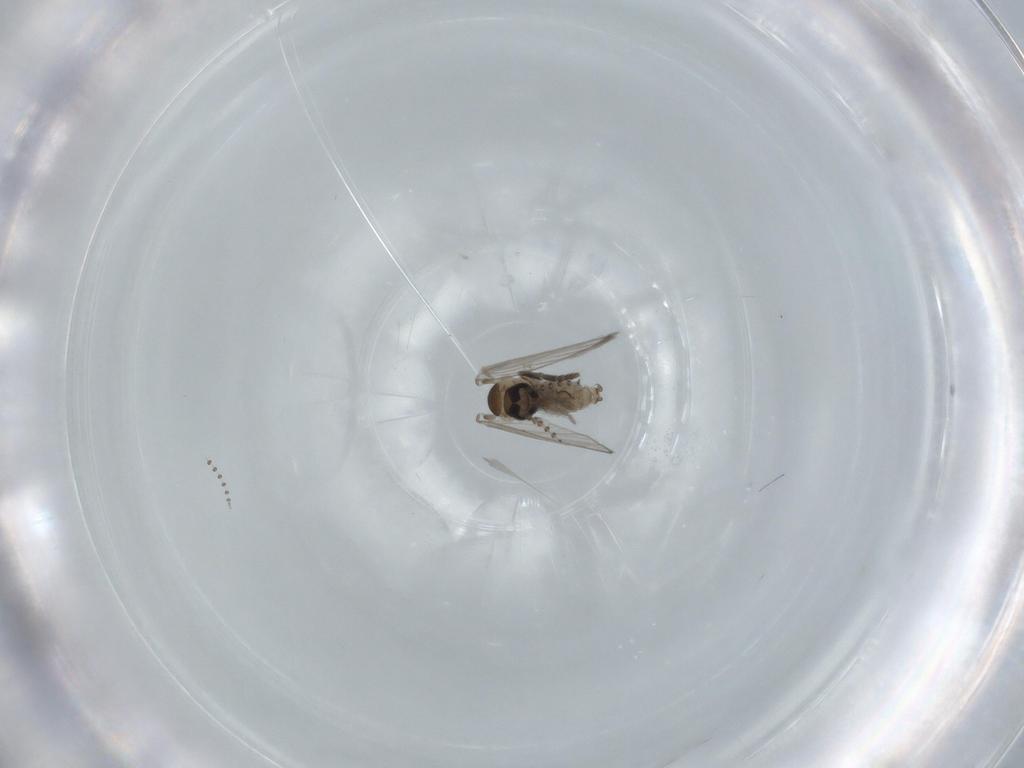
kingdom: Animalia
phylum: Arthropoda
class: Insecta
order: Diptera
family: Psychodidae
